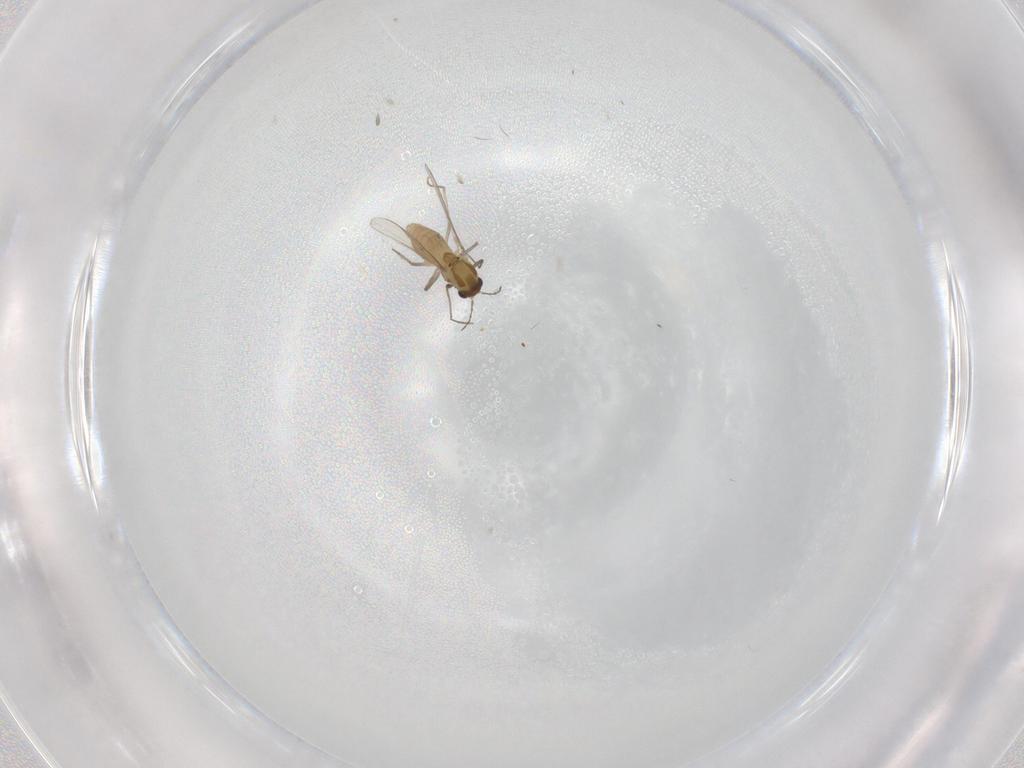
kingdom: Animalia
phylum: Arthropoda
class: Insecta
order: Diptera
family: Chironomidae
